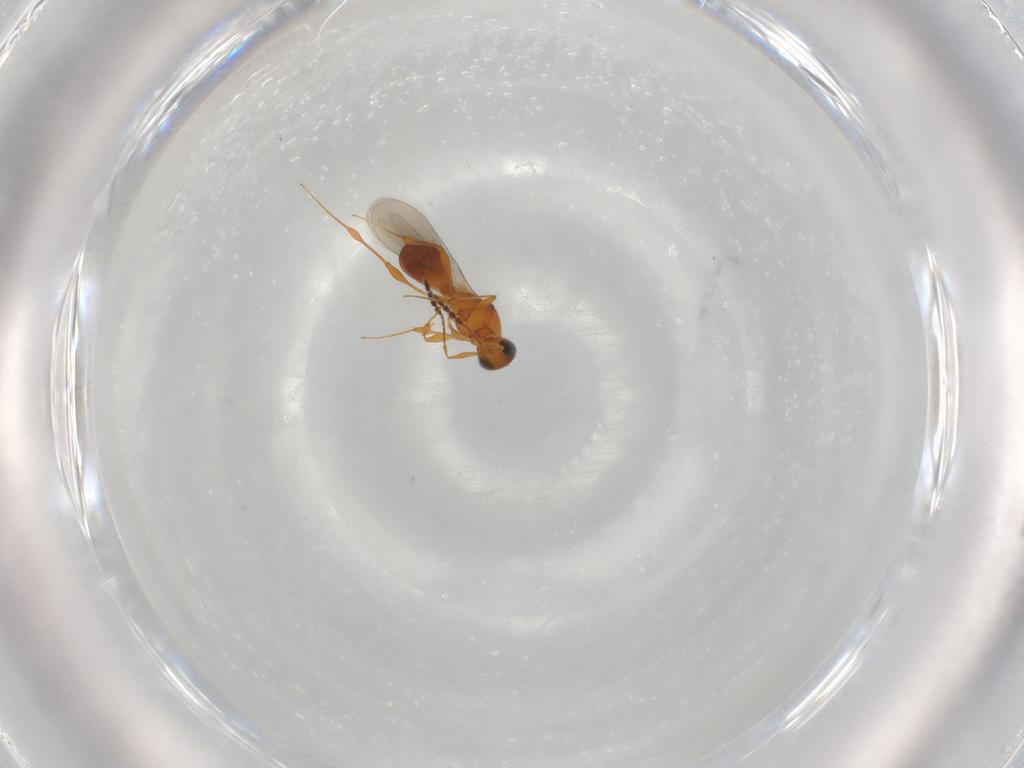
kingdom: Animalia
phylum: Arthropoda
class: Insecta
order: Hymenoptera
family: Platygastridae
